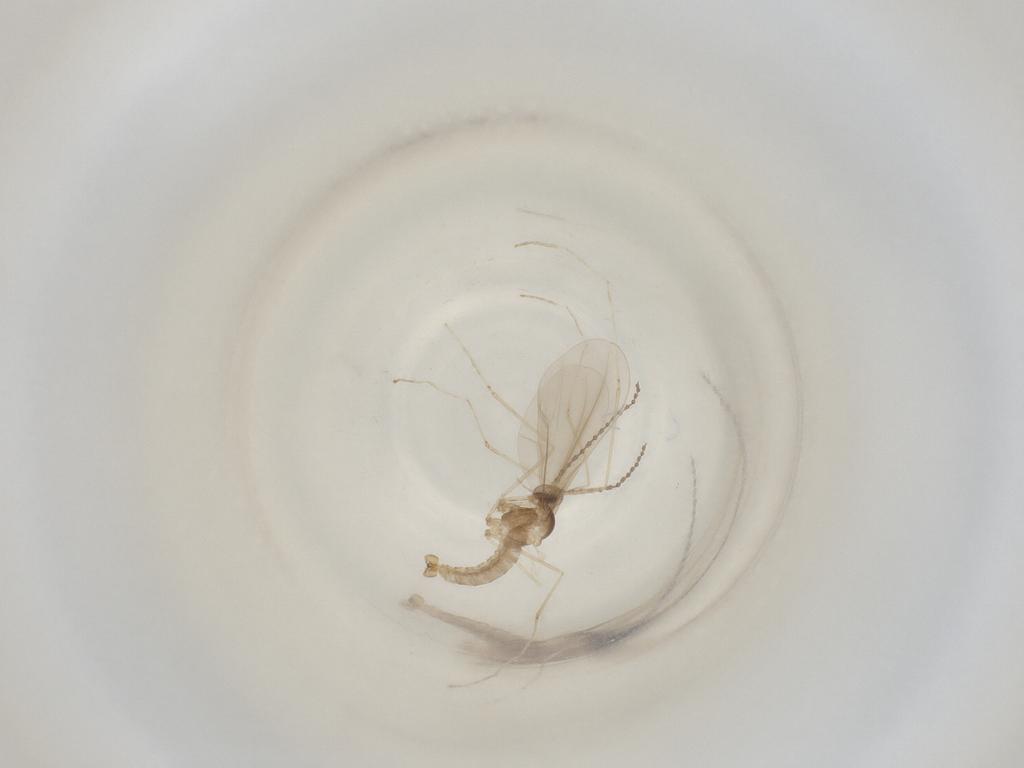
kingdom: Animalia
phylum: Arthropoda
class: Insecta
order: Diptera
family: Cecidomyiidae
